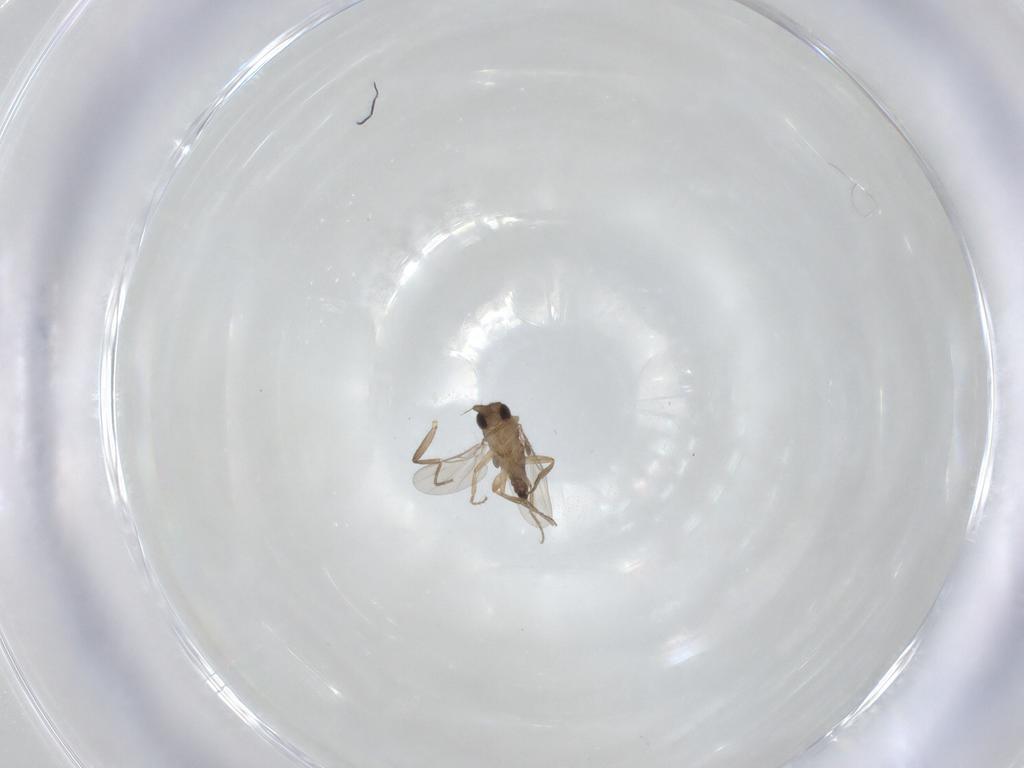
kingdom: Animalia
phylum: Arthropoda
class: Insecta
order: Diptera
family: Phoridae
